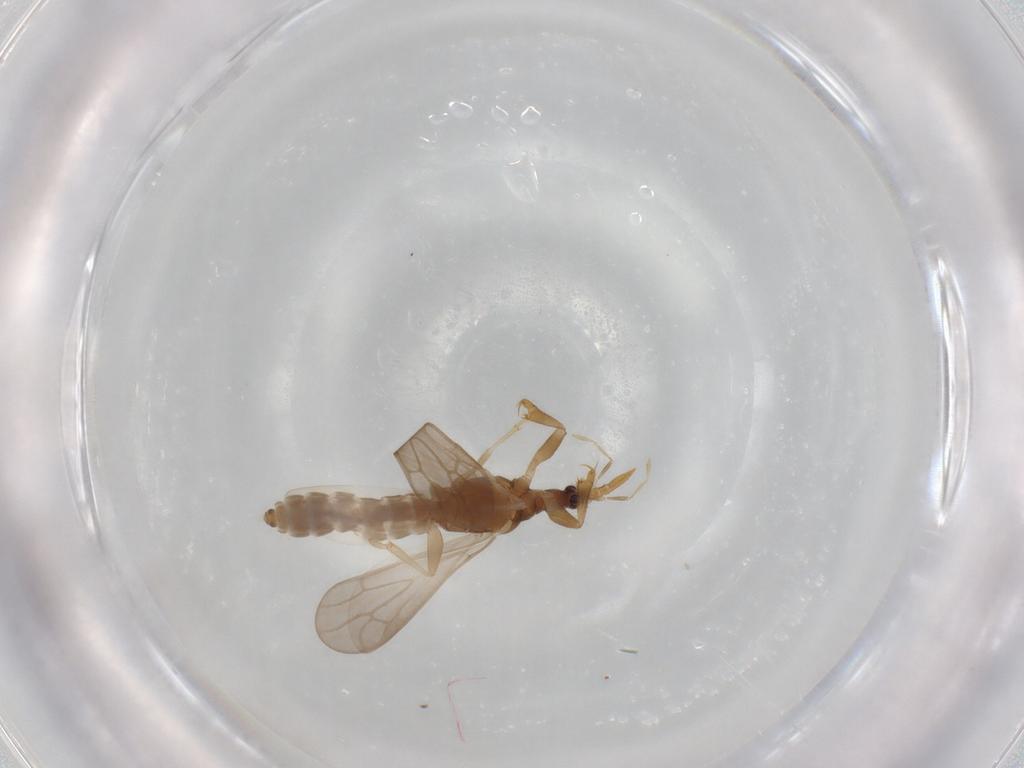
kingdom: Animalia
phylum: Arthropoda
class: Insecta
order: Hemiptera
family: Enicocephalidae
